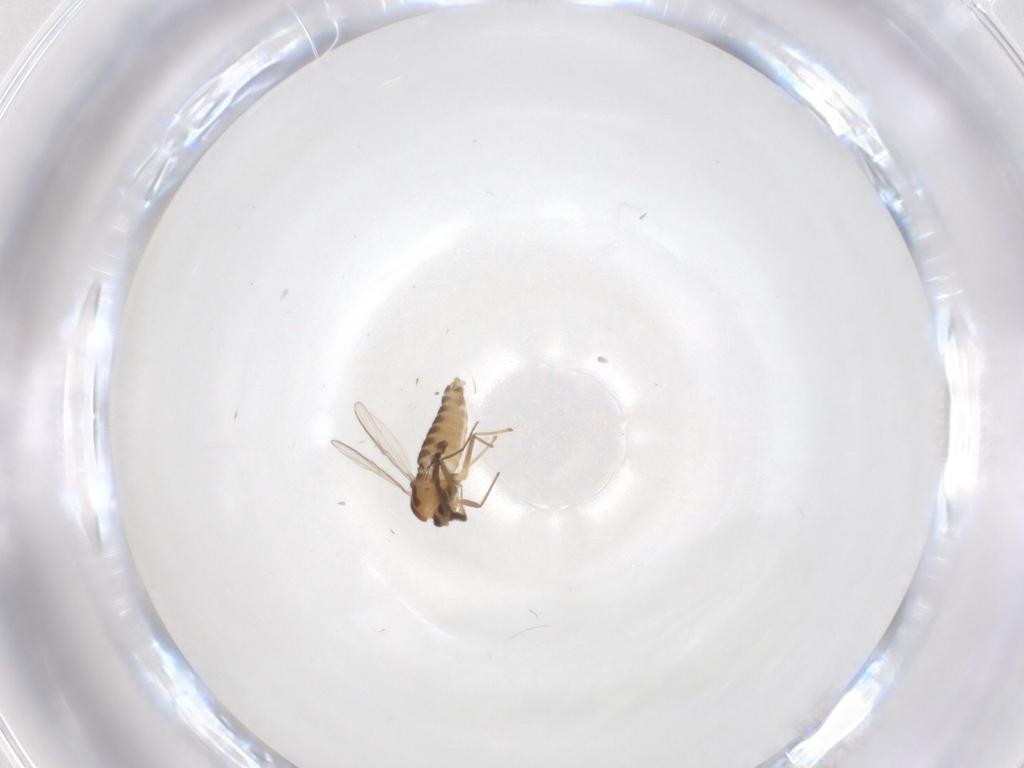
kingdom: Animalia
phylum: Arthropoda
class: Insecta
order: Diptera
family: Chironomidae
